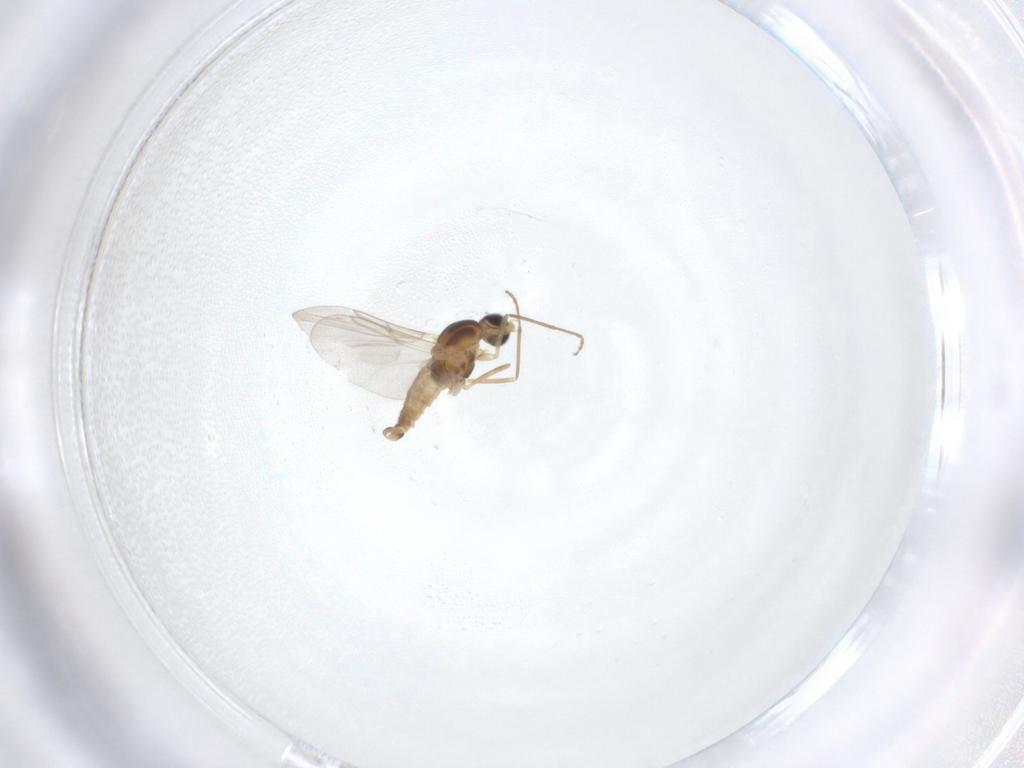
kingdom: Animalia
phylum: Arthropoda
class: Insecta
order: Diptera
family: Cecidomyiidae
